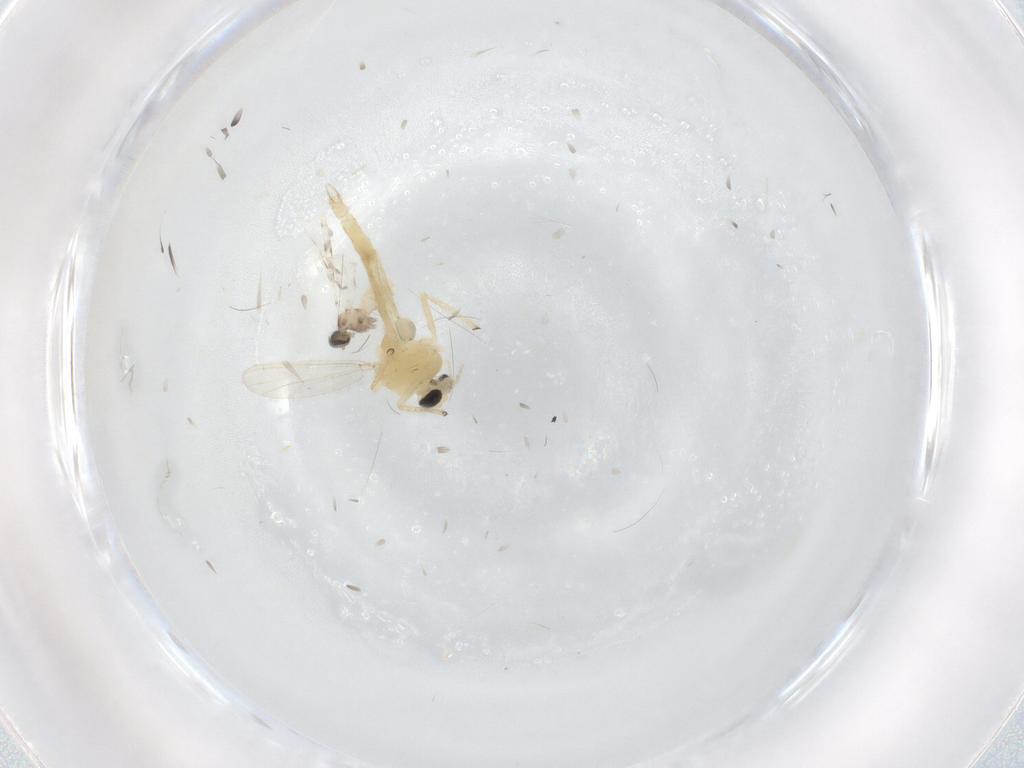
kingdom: Animalia
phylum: Arthropoda
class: Insecta
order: Diptera
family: Chironomidae
